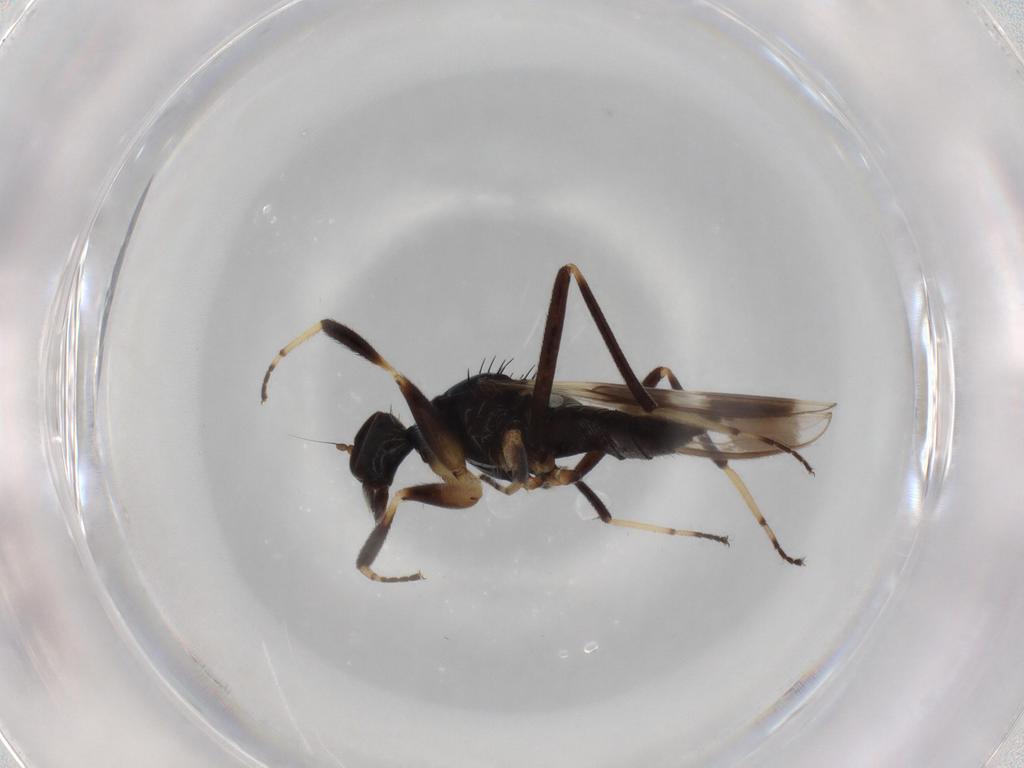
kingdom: Animalia
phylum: Arthropoda
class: Insecta
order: Diptera
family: Hybotidae
